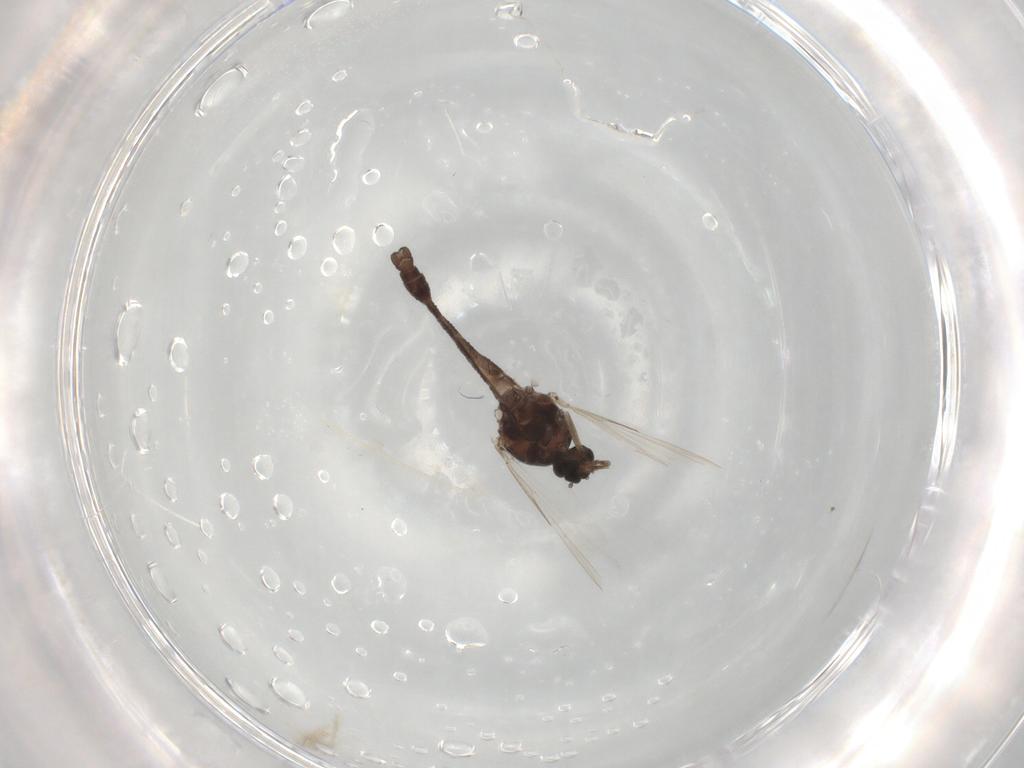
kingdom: Animalia
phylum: Arthropoda
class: Insecta
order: Diptera
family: Ceratopogonidae
